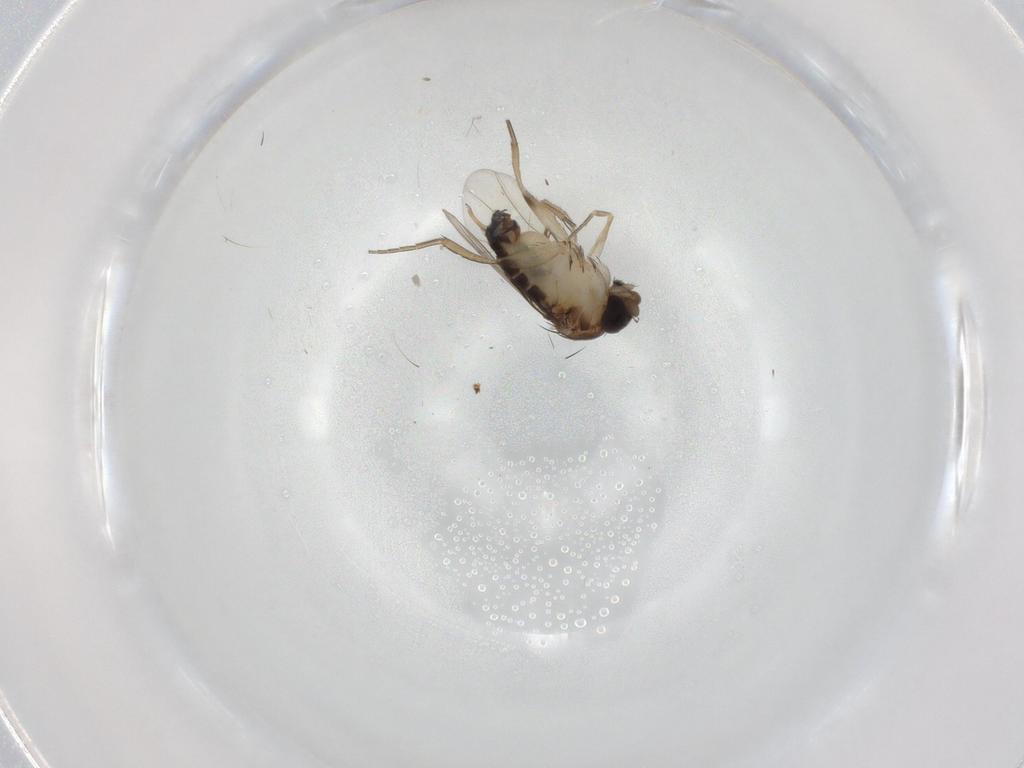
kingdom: Animalia
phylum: Arthropoda
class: Insecta
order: Diptera
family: Phoridae
